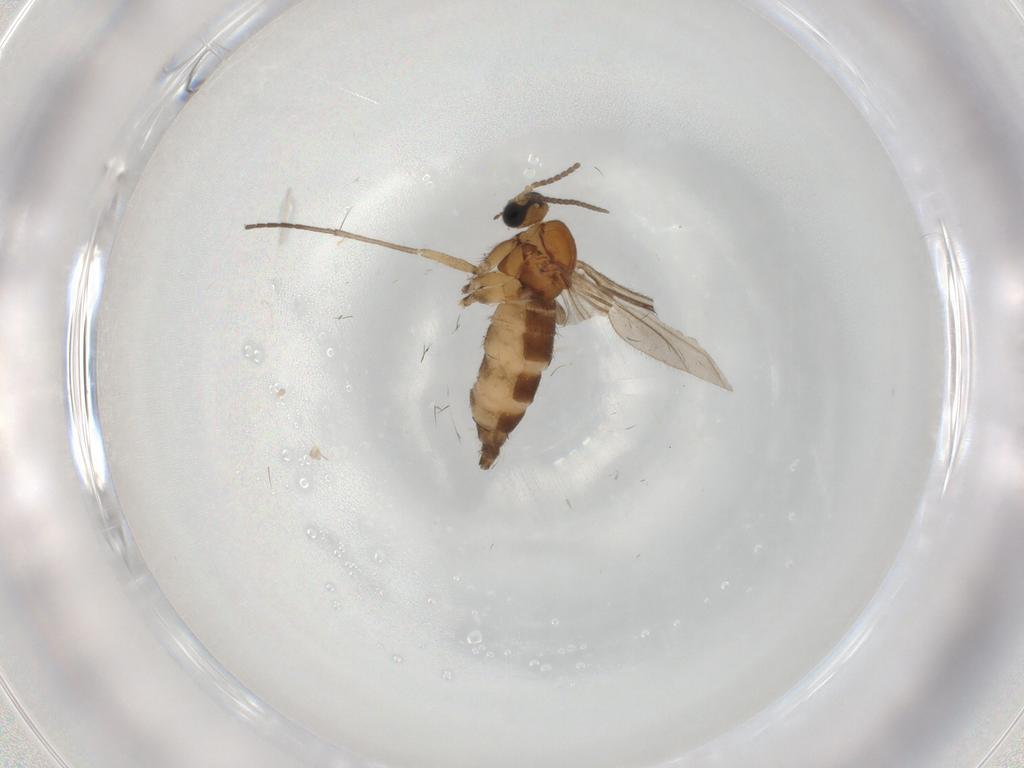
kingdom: Animalia
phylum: Arthropoda
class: Insecta
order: Diptera
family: Sciaridae
